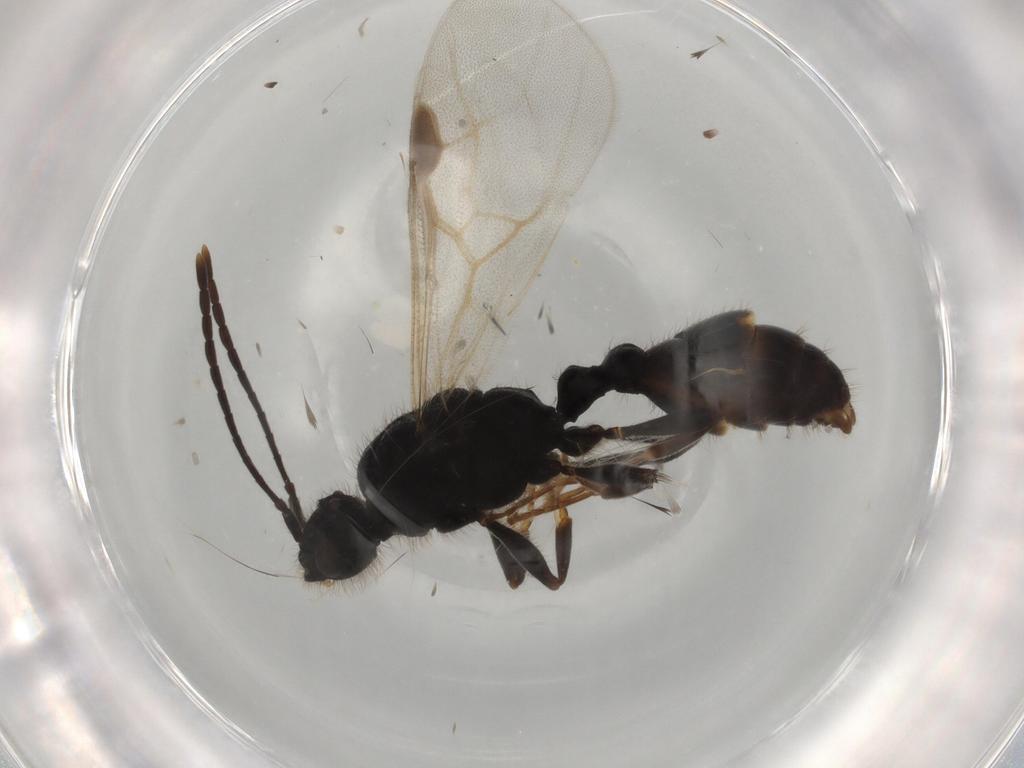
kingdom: Animalia
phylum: Arthropoda
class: Insecta
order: Hymenoptera
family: Formicidae
